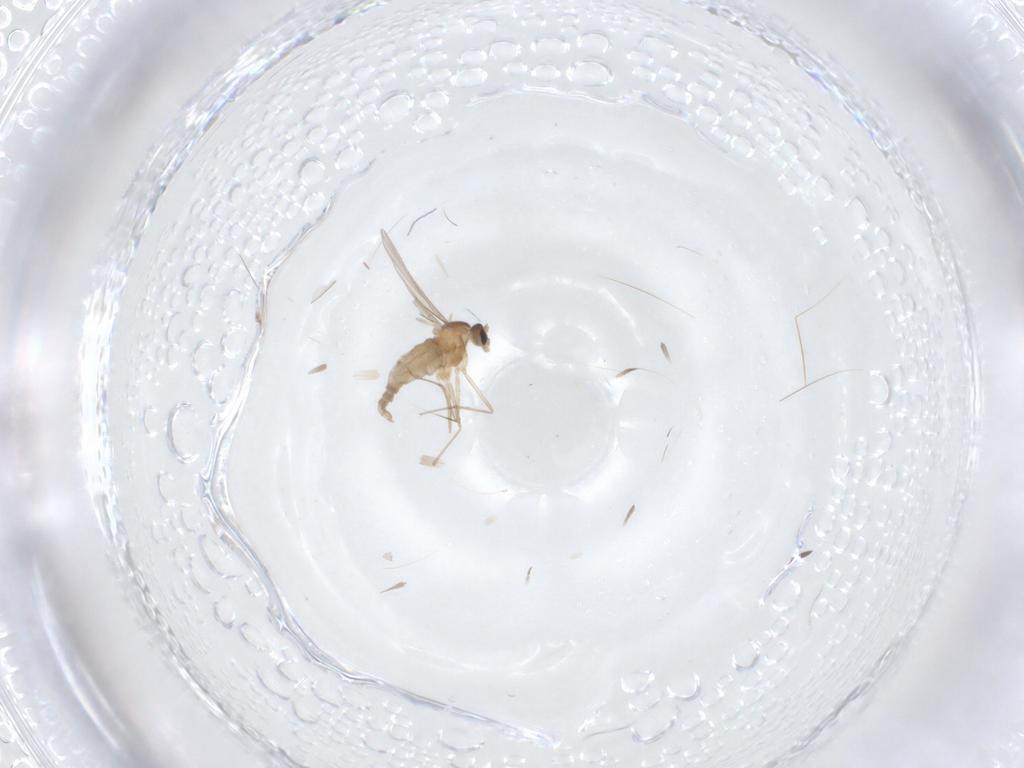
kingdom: Animalia
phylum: Arthropoda
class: Insecta
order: Diptera
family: Cecidomyiidae
